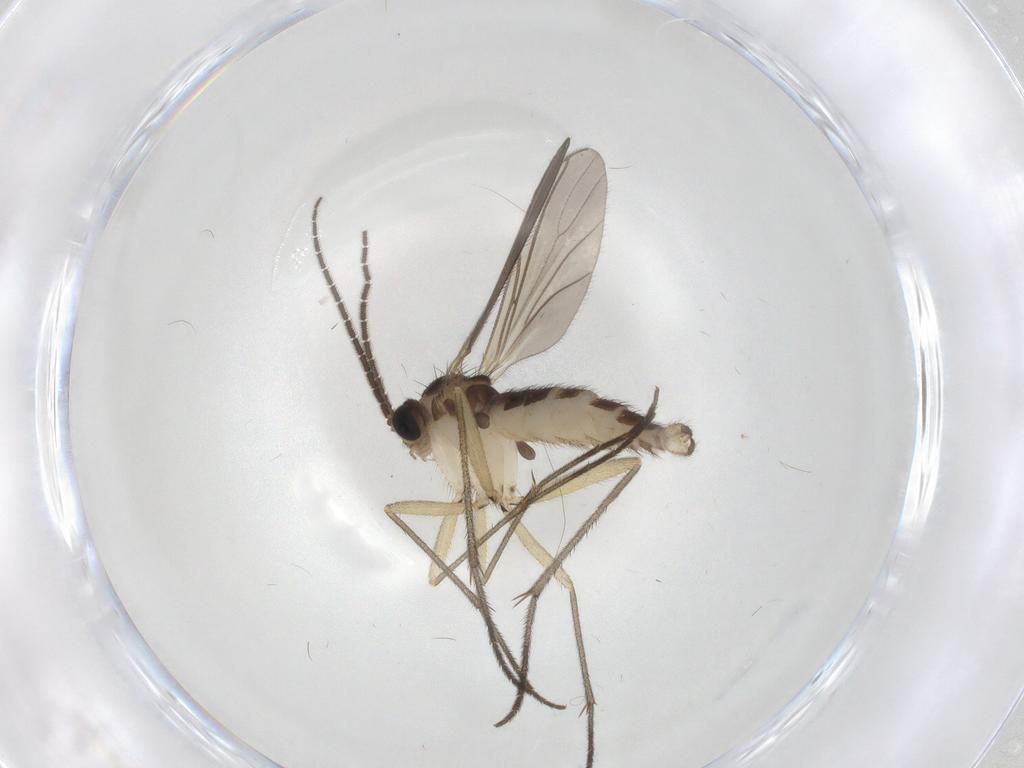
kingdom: Animalia
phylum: Arthropoda
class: Insecta
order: Diptera
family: Sciaridae
